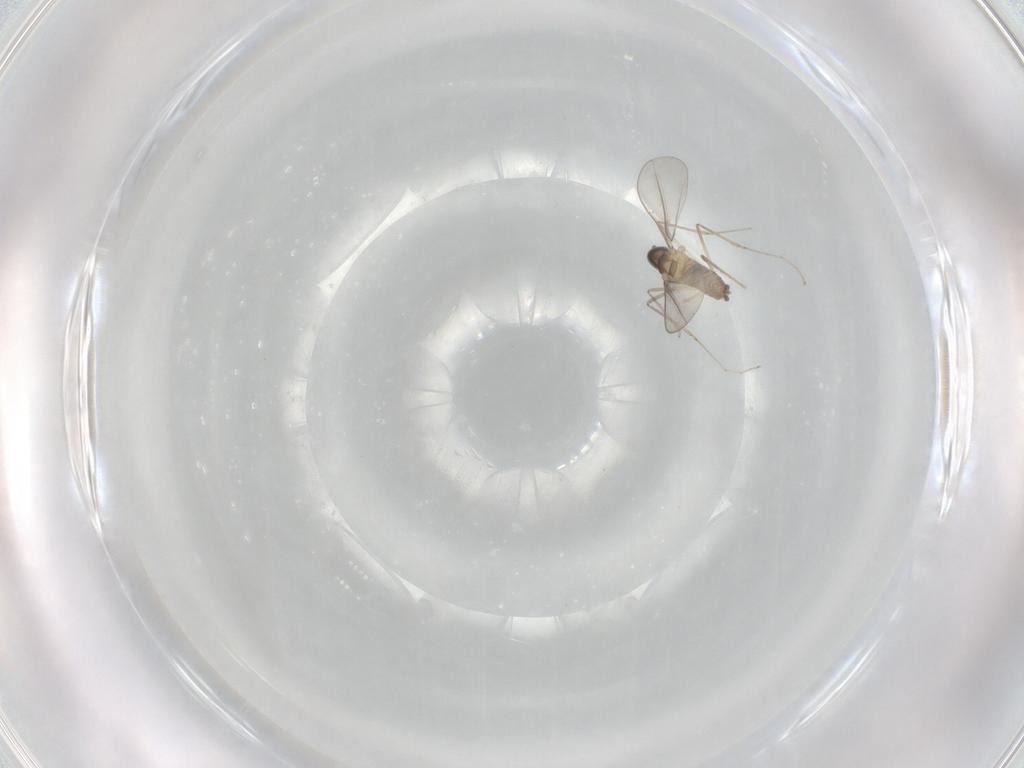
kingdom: Animalia
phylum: Arthropoda
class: Insecta
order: Diptera
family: Cecidomyiidae
